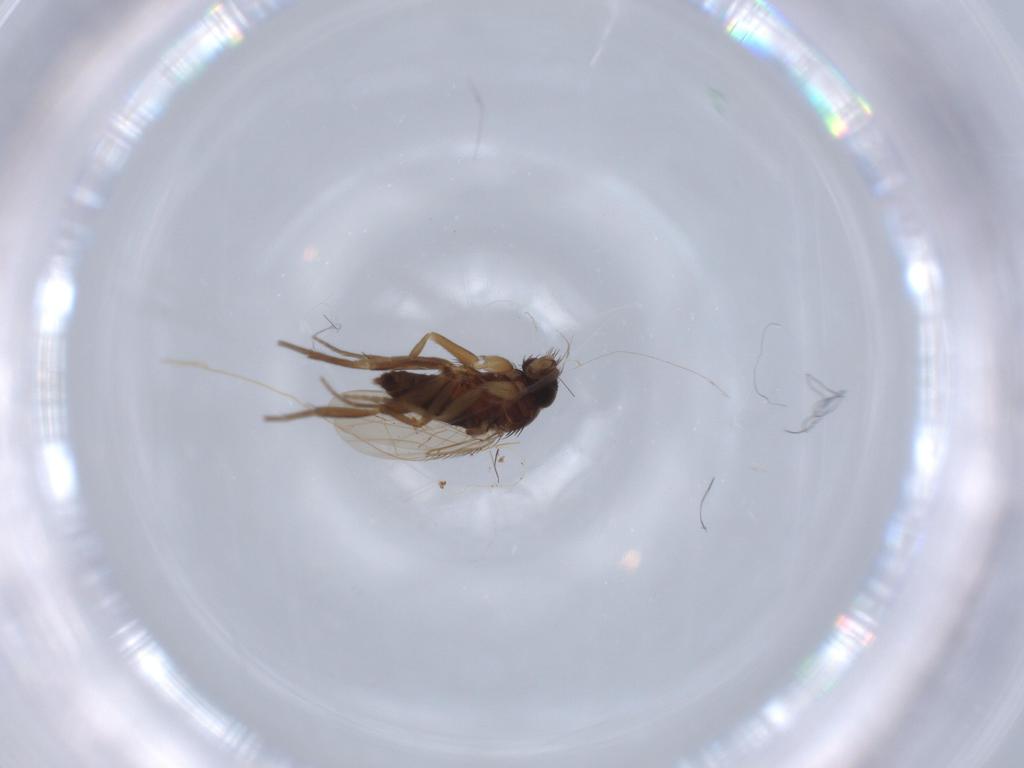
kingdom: Animalia
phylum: Arthropoda
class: Insecta
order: Diptera
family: Phoridae
